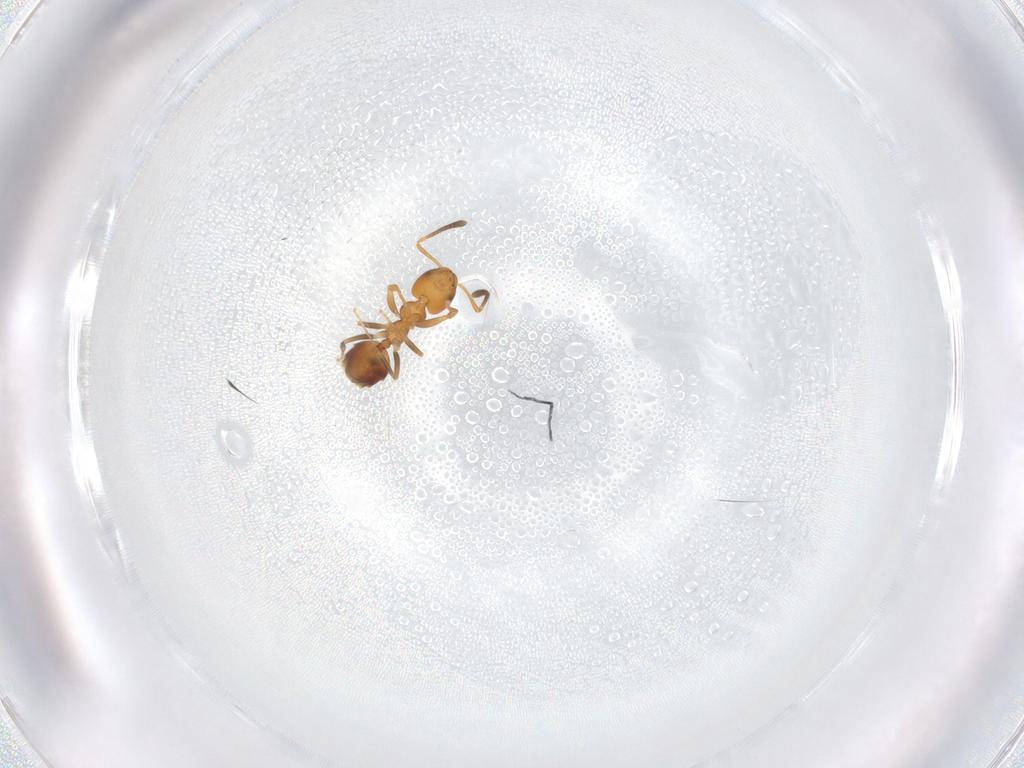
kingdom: Animalia
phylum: Arthropoda
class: Insecta
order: Hymenoptera
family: Formicidae
